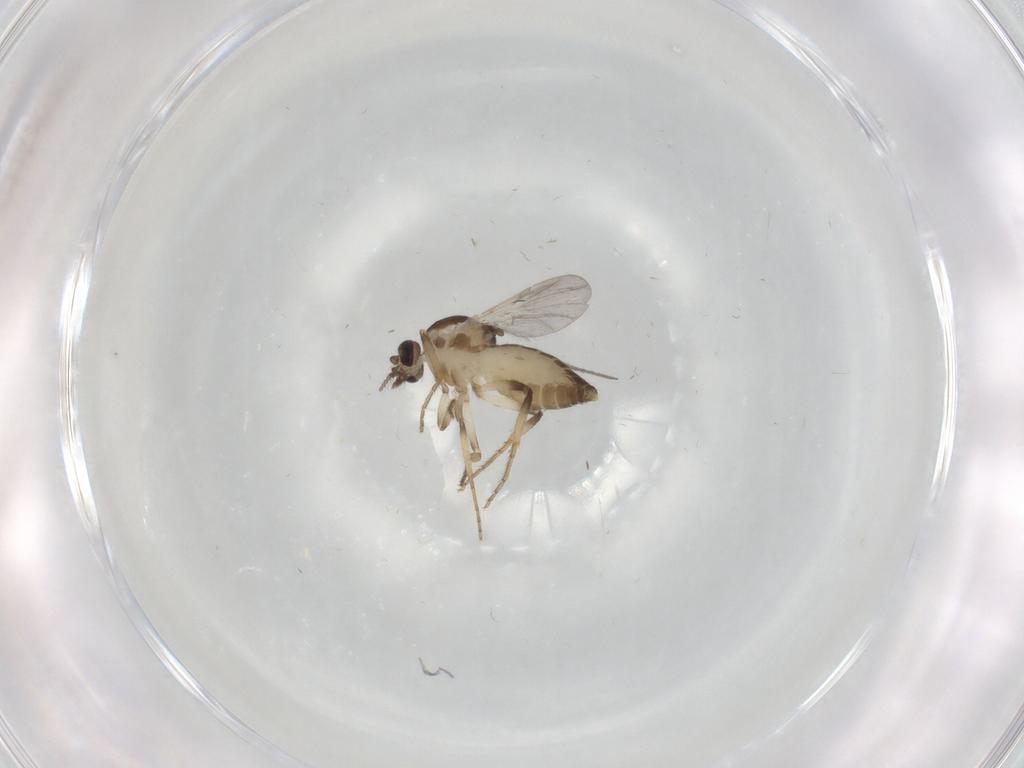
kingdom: Animalia
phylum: Arthropoda
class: Insecta
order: Diptera
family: Ceratopogonidae
